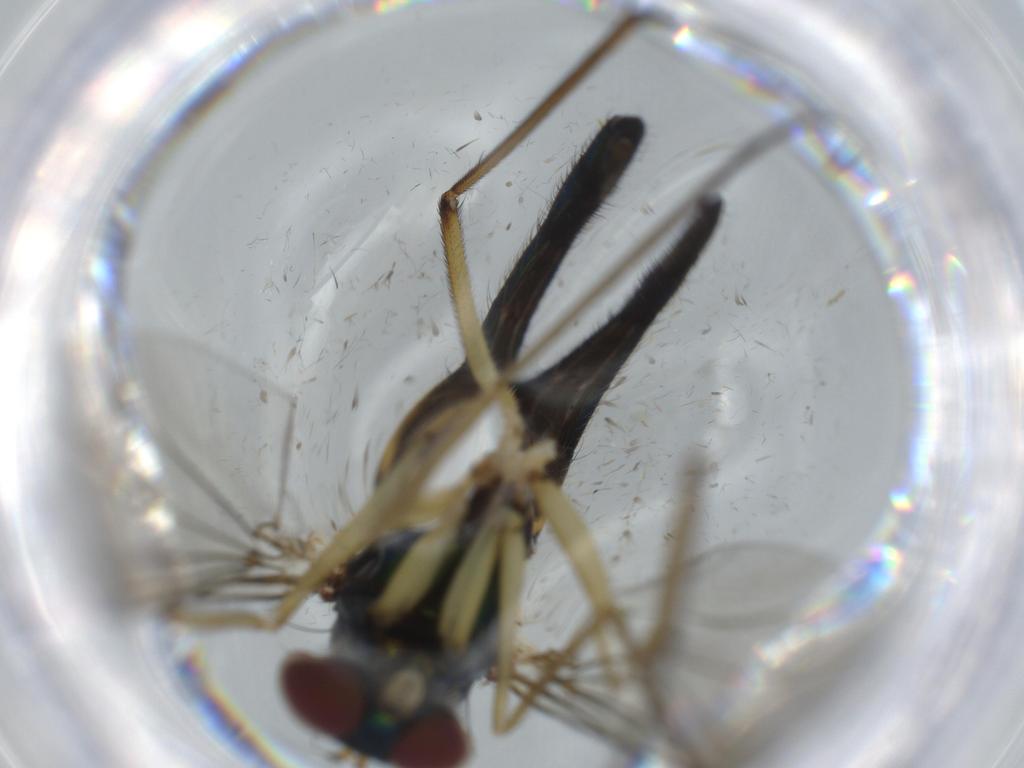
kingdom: Animalia
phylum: Arthropoda
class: Insecta
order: Diptera
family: Dolichopodidae
